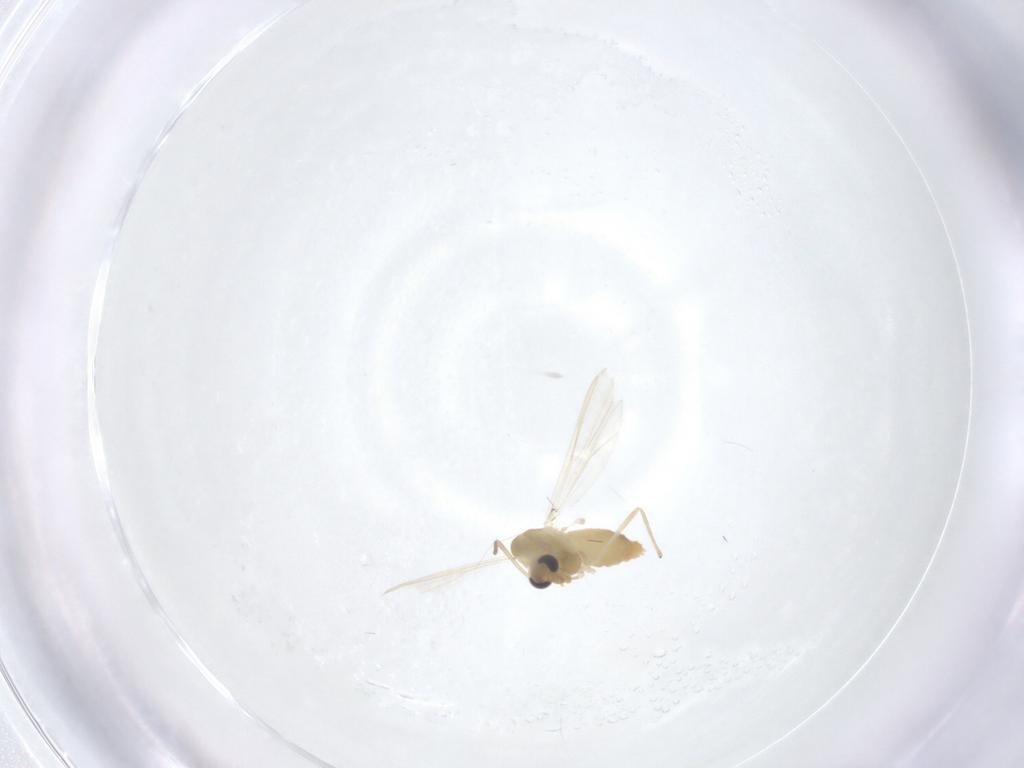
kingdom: Animalia
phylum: Arthropoda
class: Insecta
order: Diptera
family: Chironomidae
